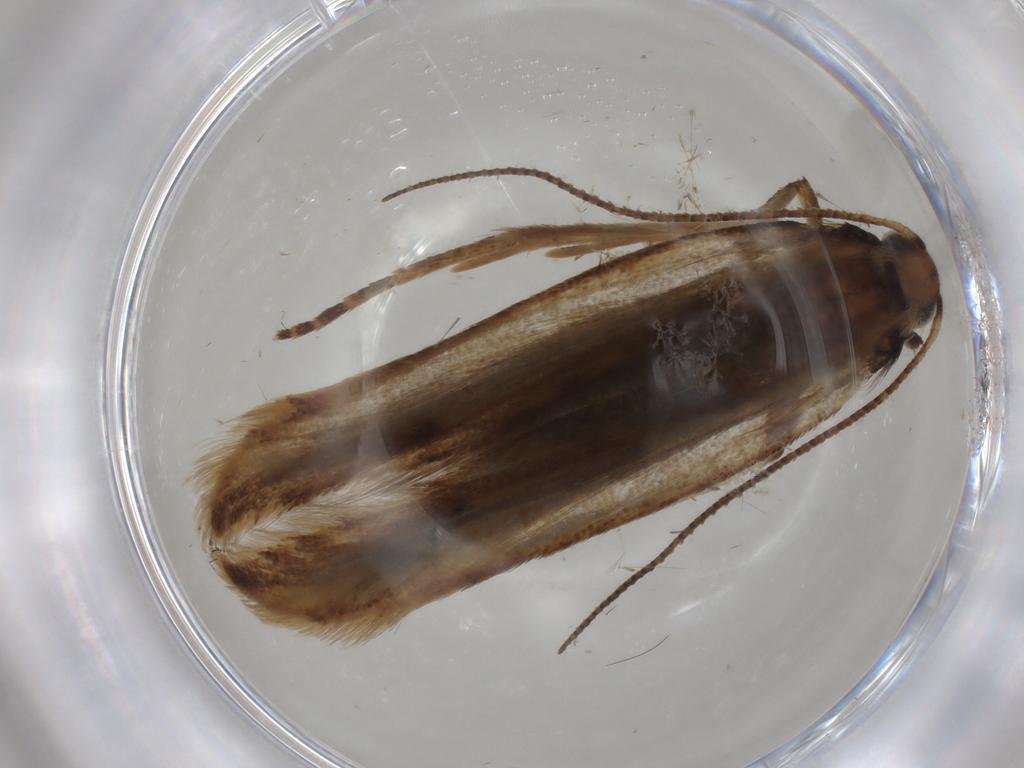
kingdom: Animalia
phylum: Arthropoda
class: Insecta
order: Lepidoptera
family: Gelechiidae
